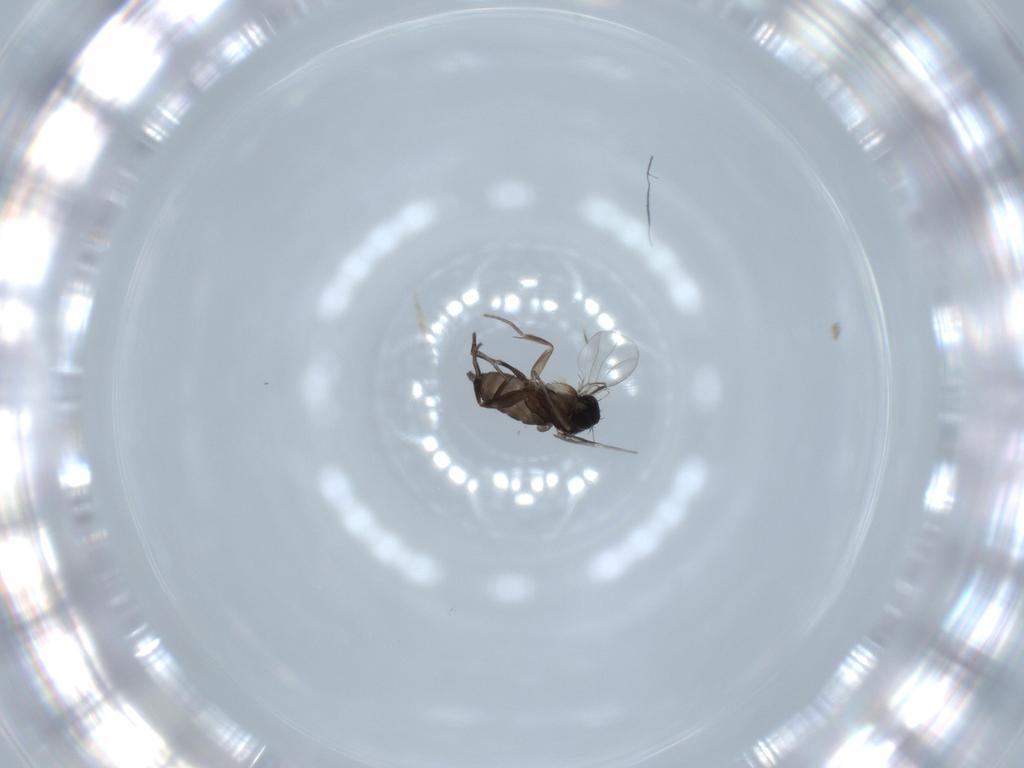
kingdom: Animalia
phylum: Arthropoda
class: Insecta
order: Diptera
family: Phoridae
